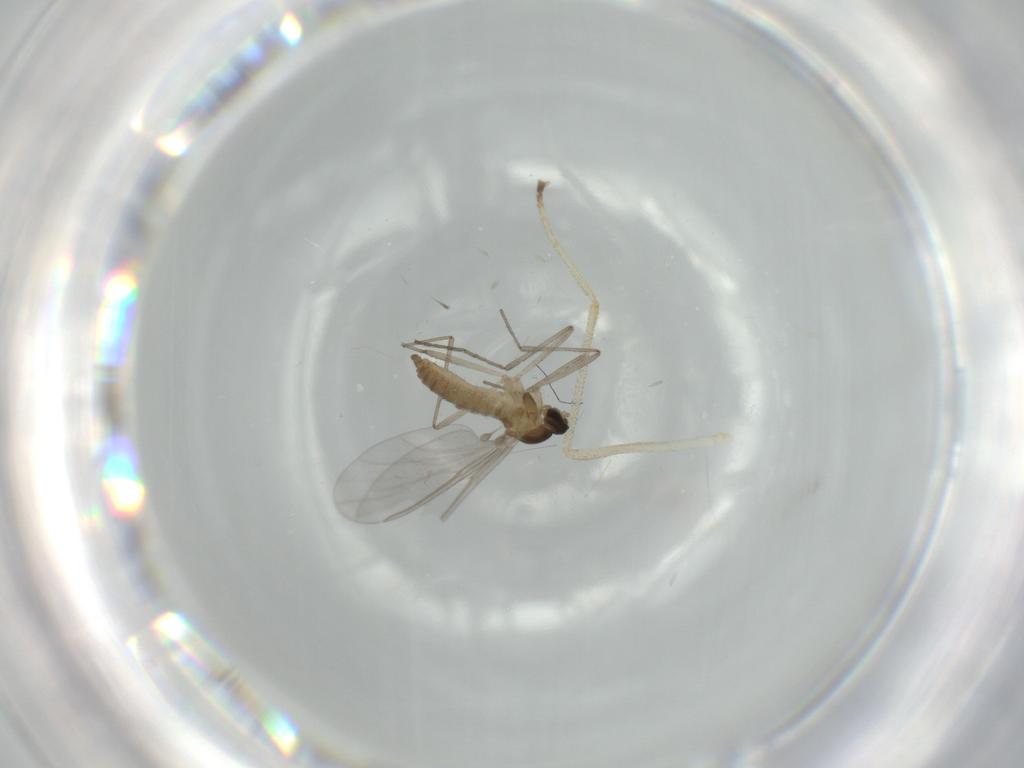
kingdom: Animalia
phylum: Arthropoda
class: Insecta
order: Diptera
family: Cecidomyiidae
